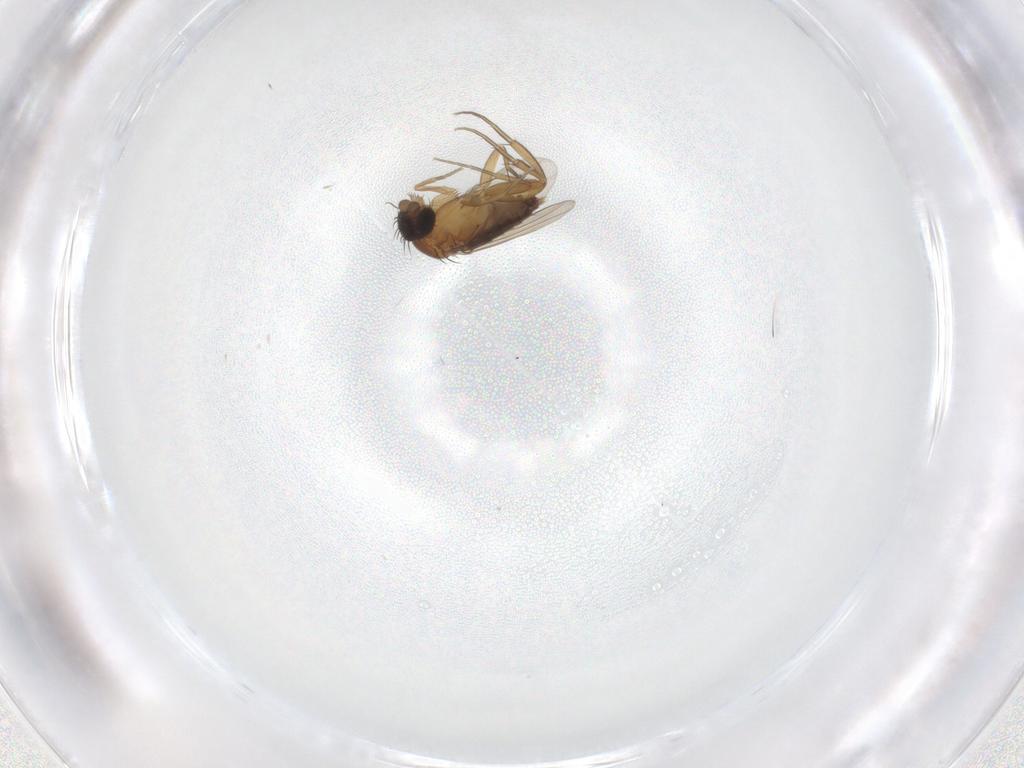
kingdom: Animalia
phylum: Arthropoda
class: Insecta
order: Diptera
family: Phoridae
